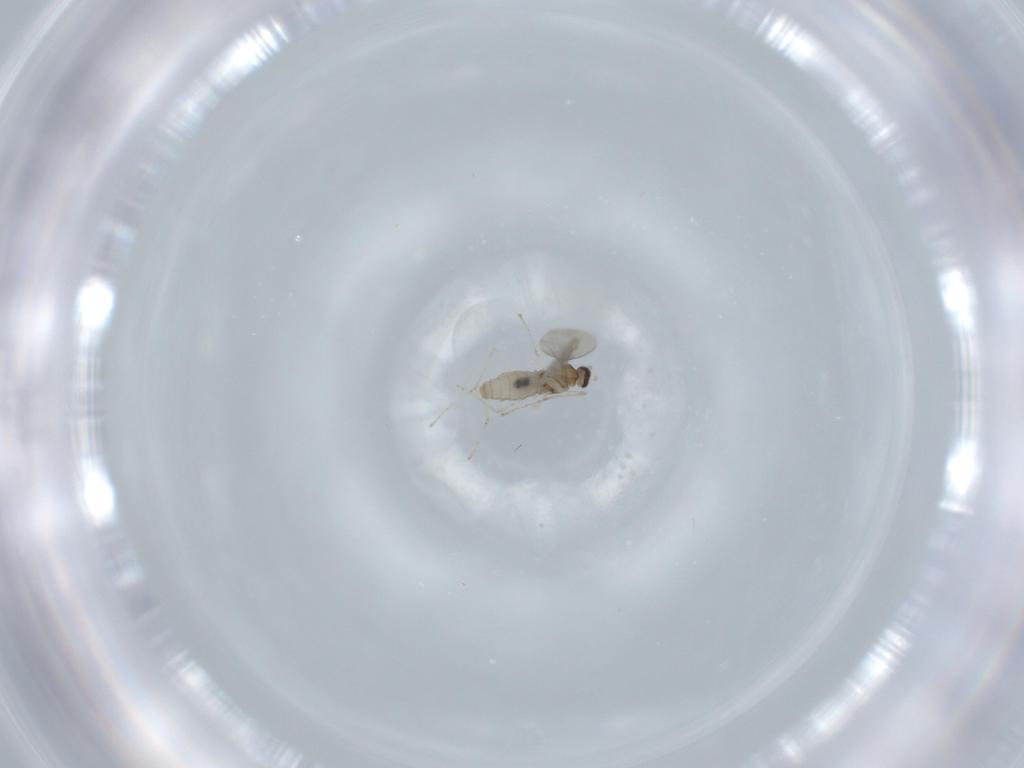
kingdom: Animalia
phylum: Arthropoda
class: Insecta
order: Diptera
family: Cecidomyiidae
